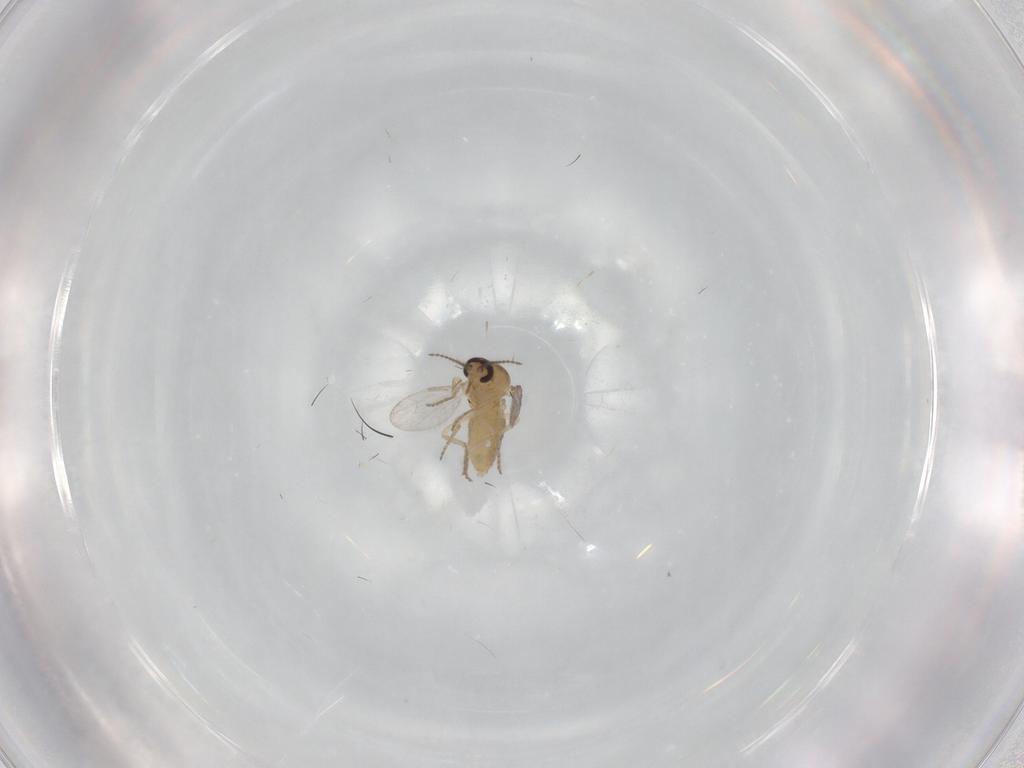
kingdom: Animalia
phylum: Arthropoda
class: Insecta
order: Diptera
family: Ceratopogonidae
